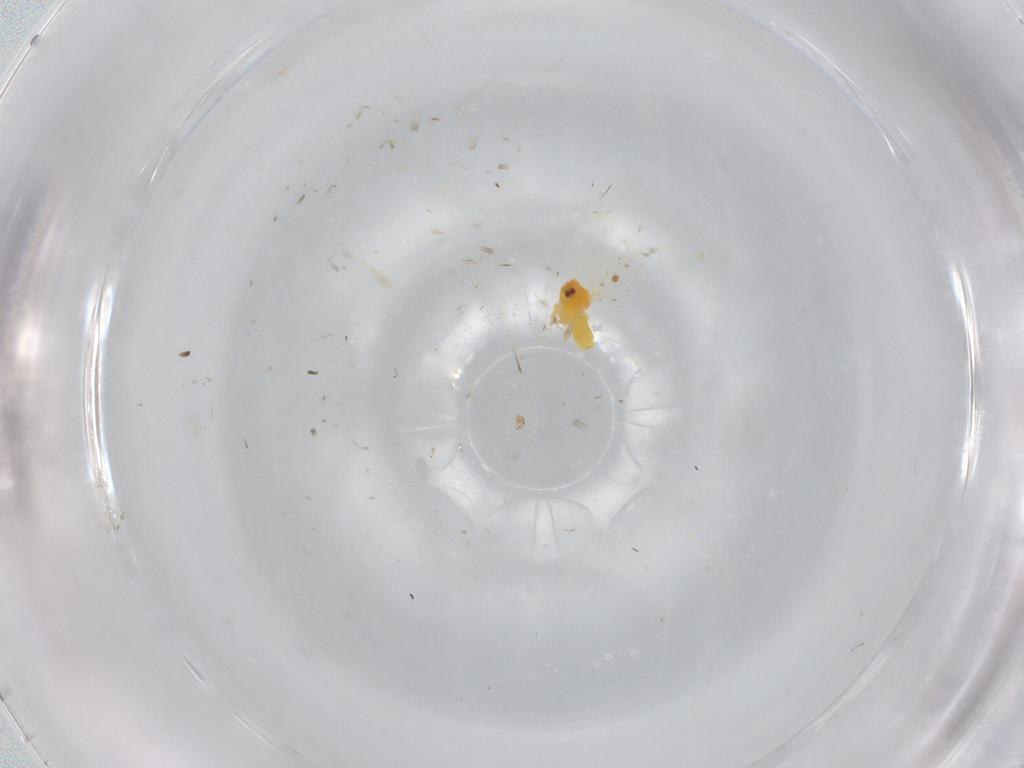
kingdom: Animalia
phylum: Arthropoda
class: Insecta
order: Hemiptera
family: Aleyrodidae
